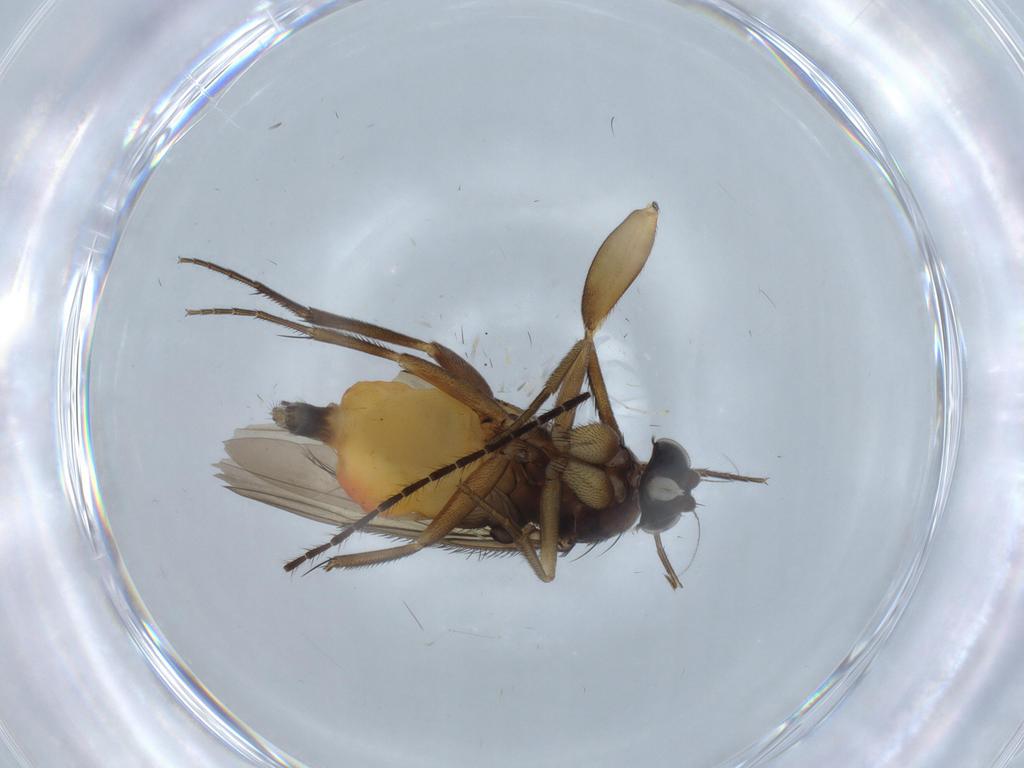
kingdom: Animalia
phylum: Arthropoda
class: Insecta
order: Diptera
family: Phoridae
